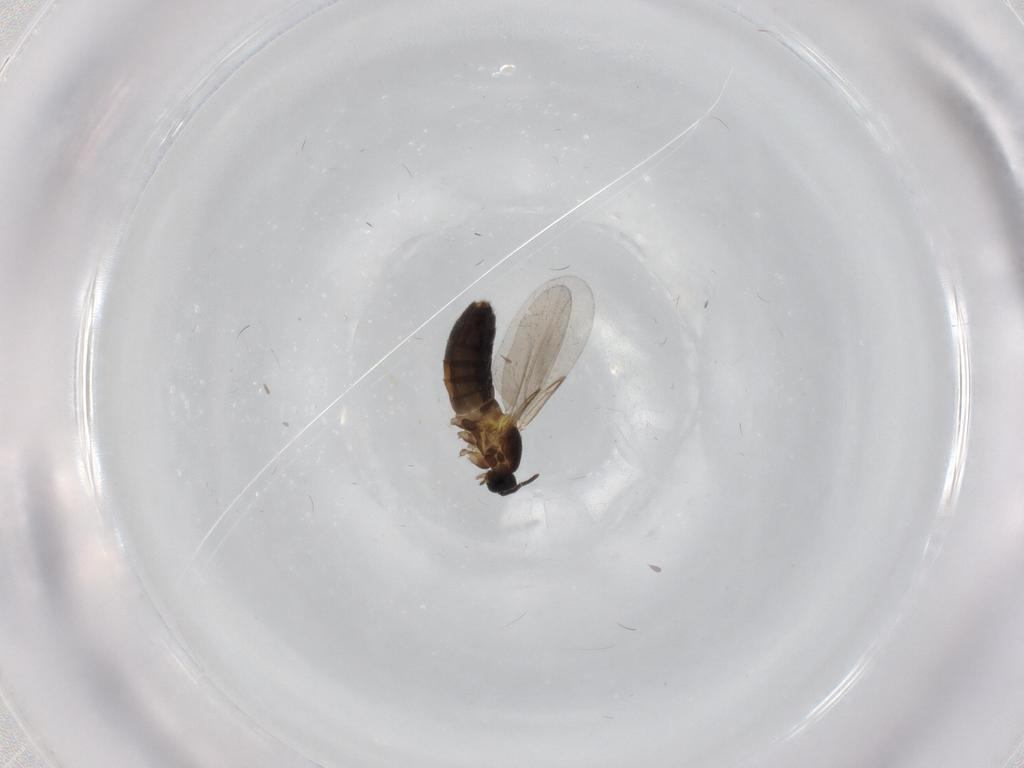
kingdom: Animalia
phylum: Arthropoda
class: Insecta
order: Diptera
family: Scatopsidae
